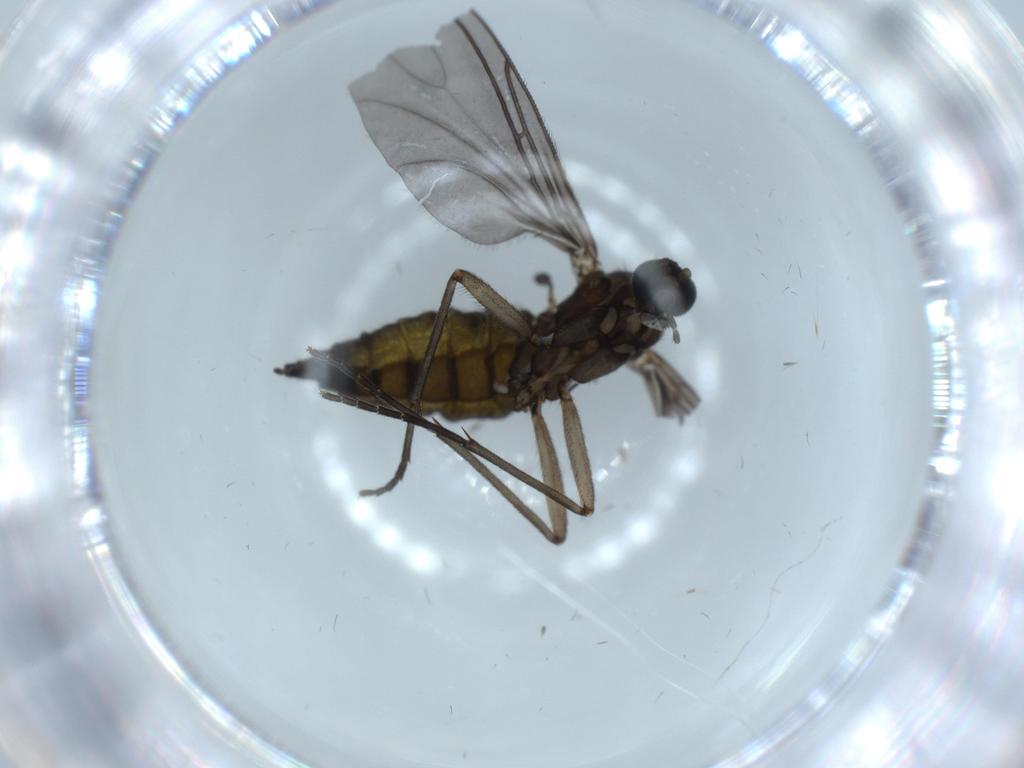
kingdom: Animalia
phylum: Arthropoda
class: Insecta
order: Diptera
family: Sciaridae
